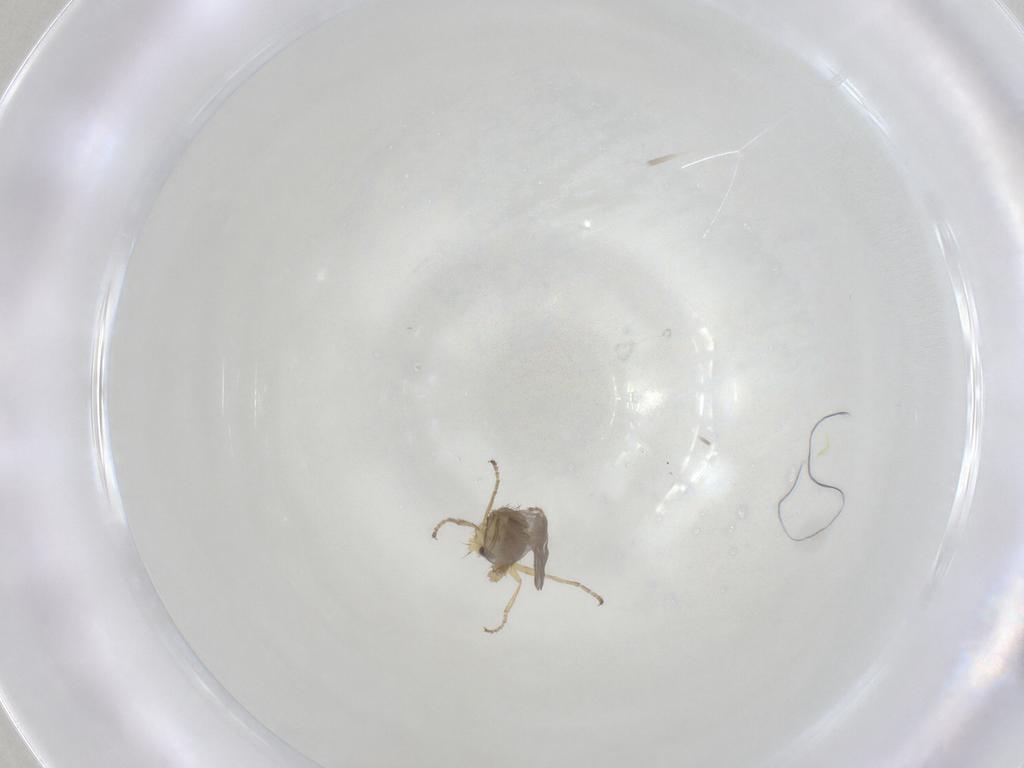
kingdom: Animalia
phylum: Arthropoda
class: Insecta
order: Diptera
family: Agromyzidae
